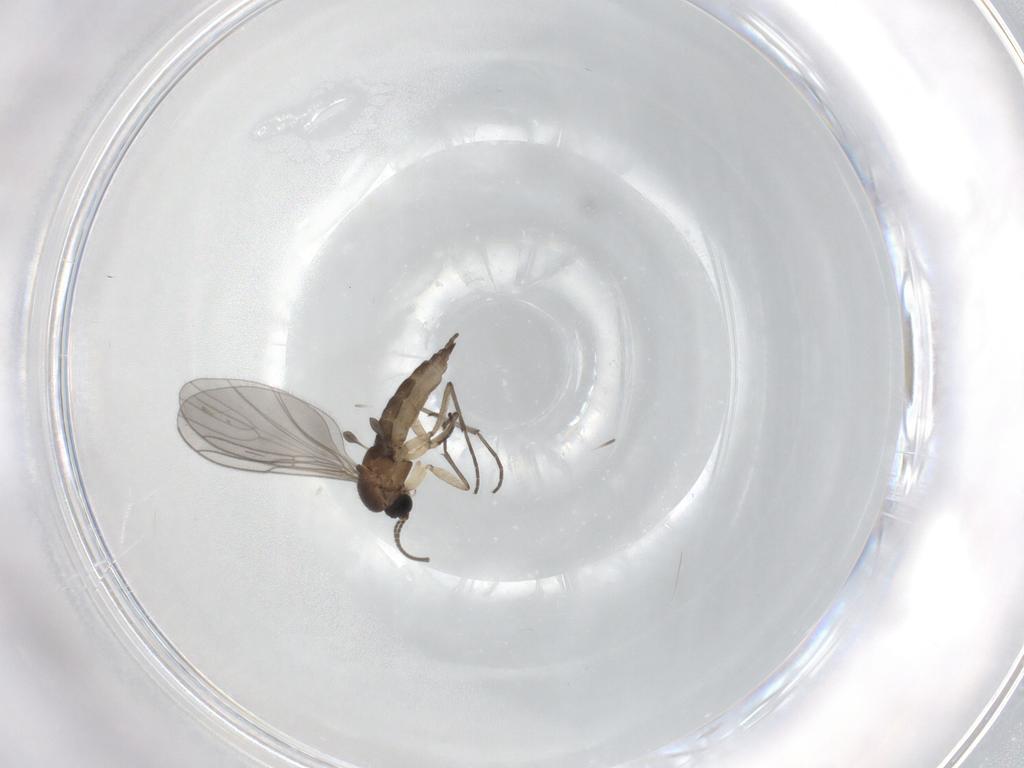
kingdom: Animalia
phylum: Arthropoda
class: Insecta
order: Diptera
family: Sciaridae
